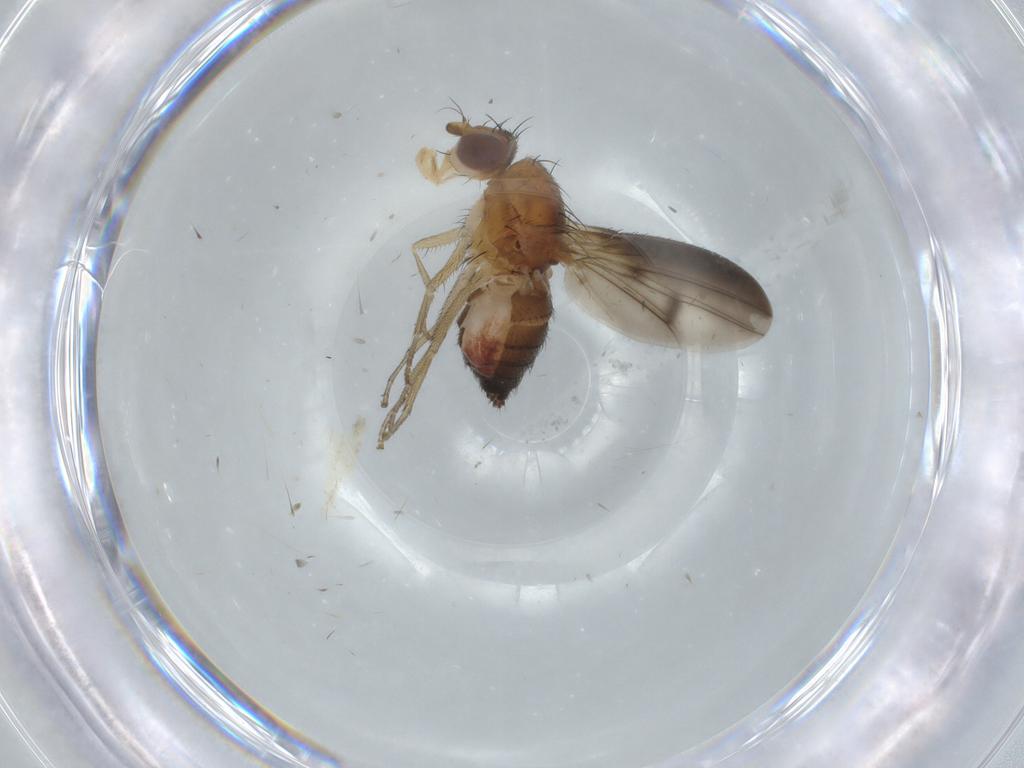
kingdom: Animalia
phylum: Arthropoda
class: Insecta
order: Diptera
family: Heleomyzidae
